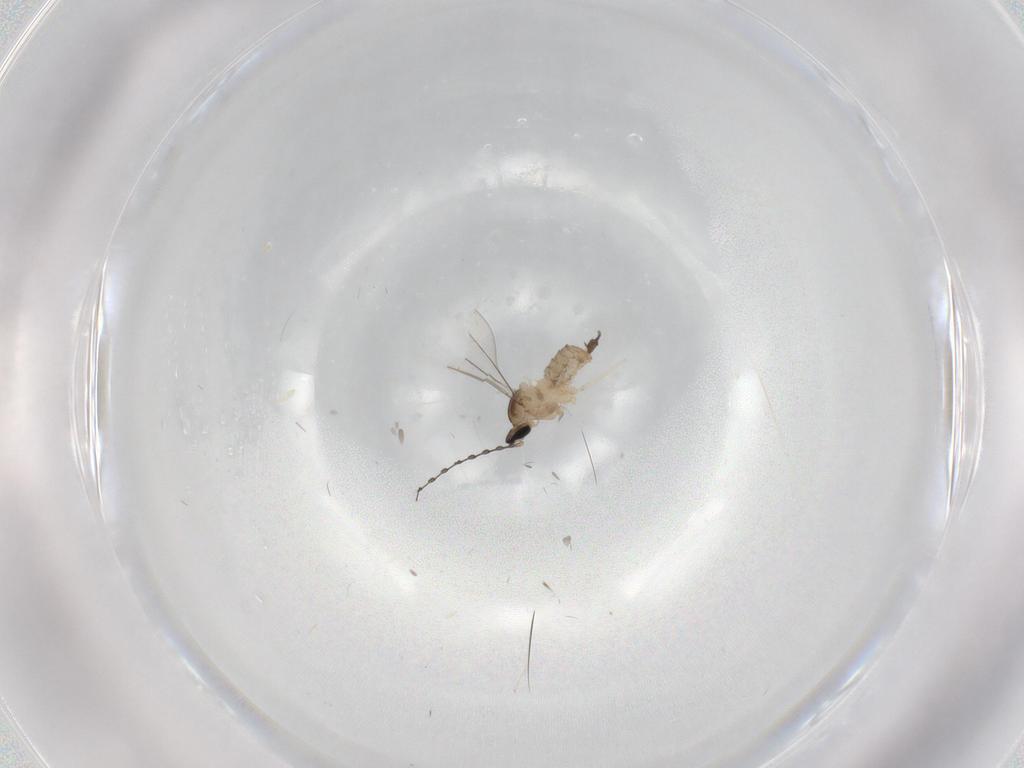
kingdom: Animalia
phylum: Arthropoda
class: Insecta
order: Diptera
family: Cecidomyiidae
